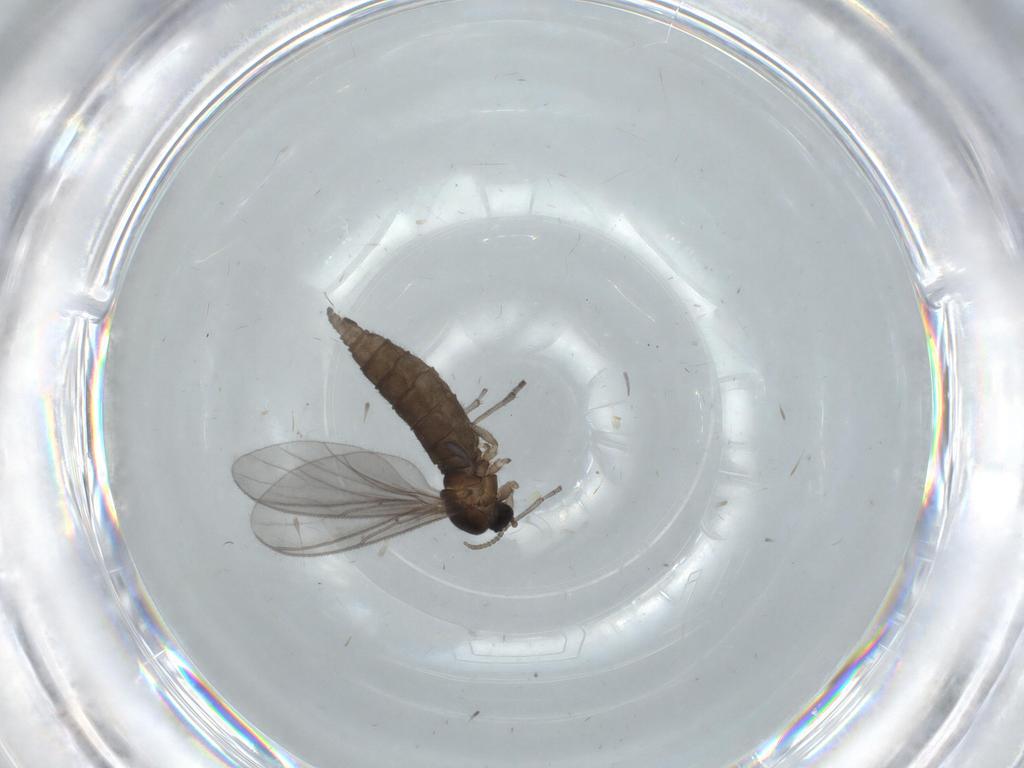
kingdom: Animalia
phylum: Arthropoda
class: Insecta
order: Diptera
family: Sciaridae
